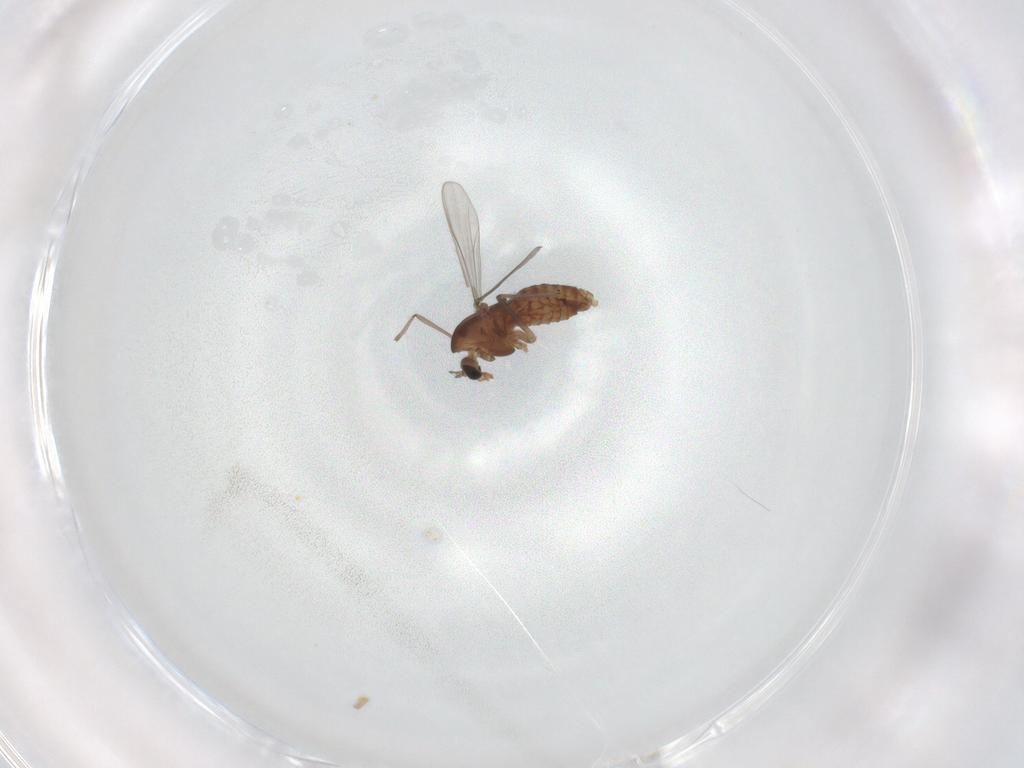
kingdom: Animalia
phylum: Arthropoda
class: Insecta
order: Diptera
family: Chironomidae
